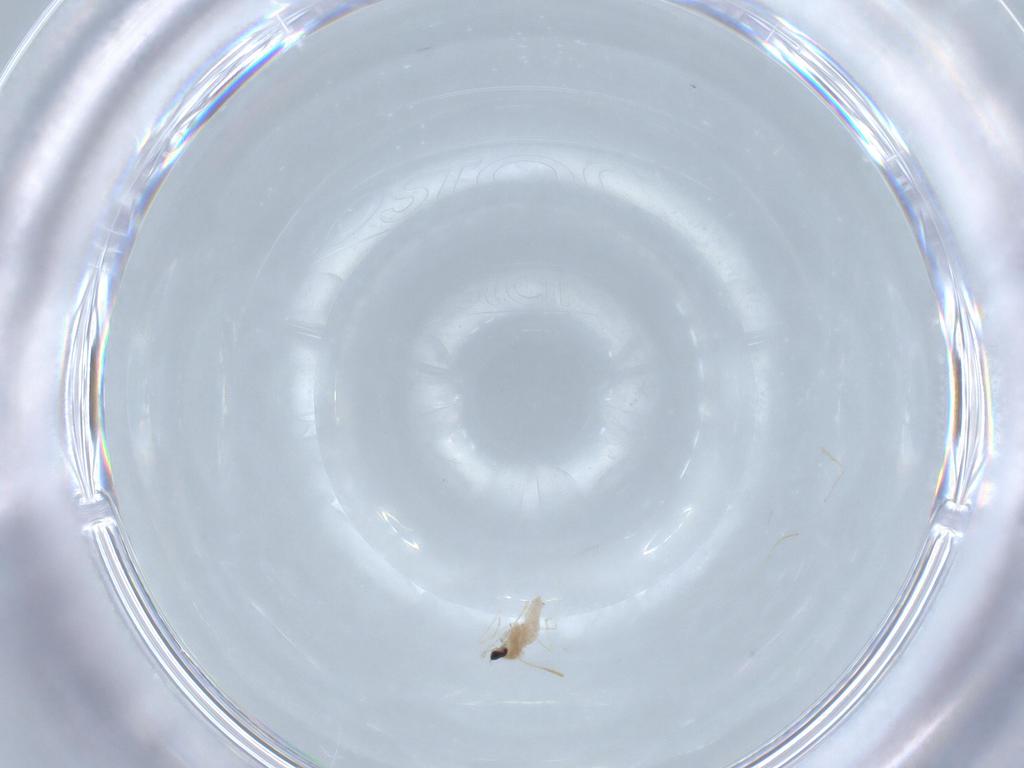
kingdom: Animalia
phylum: Arthropoda
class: Insecta
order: Diptera
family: Cecidomyiidae
